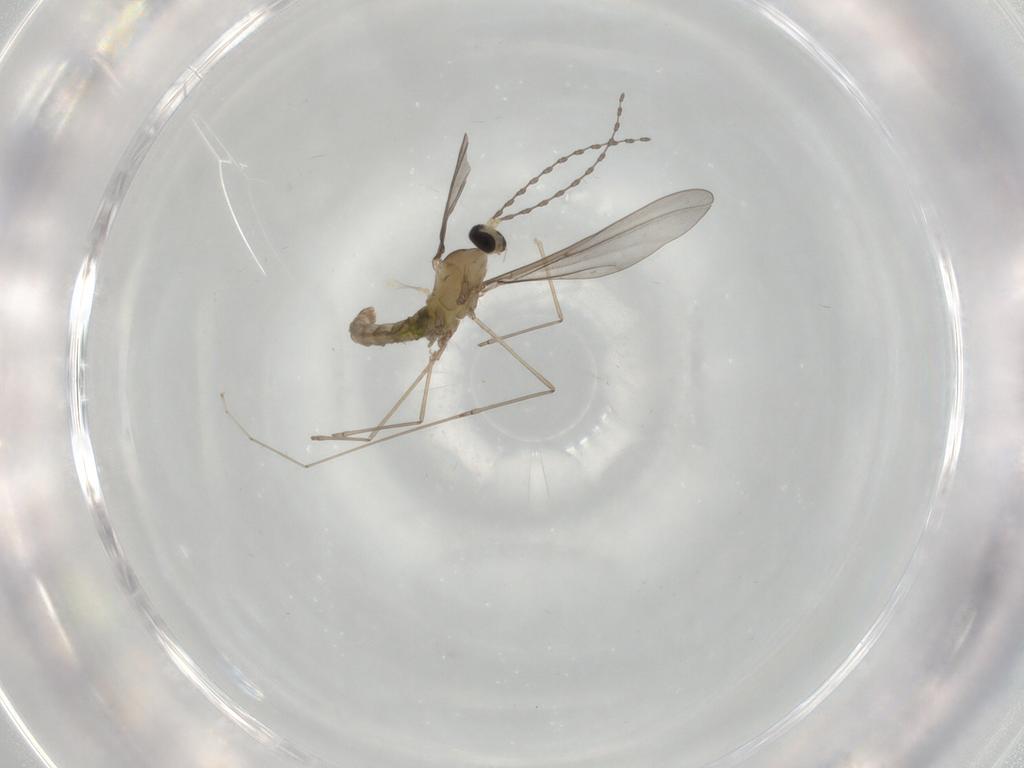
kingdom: Animalia
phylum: Arthropoda
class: Insecta
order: Diptera
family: Cecidomyiidae
